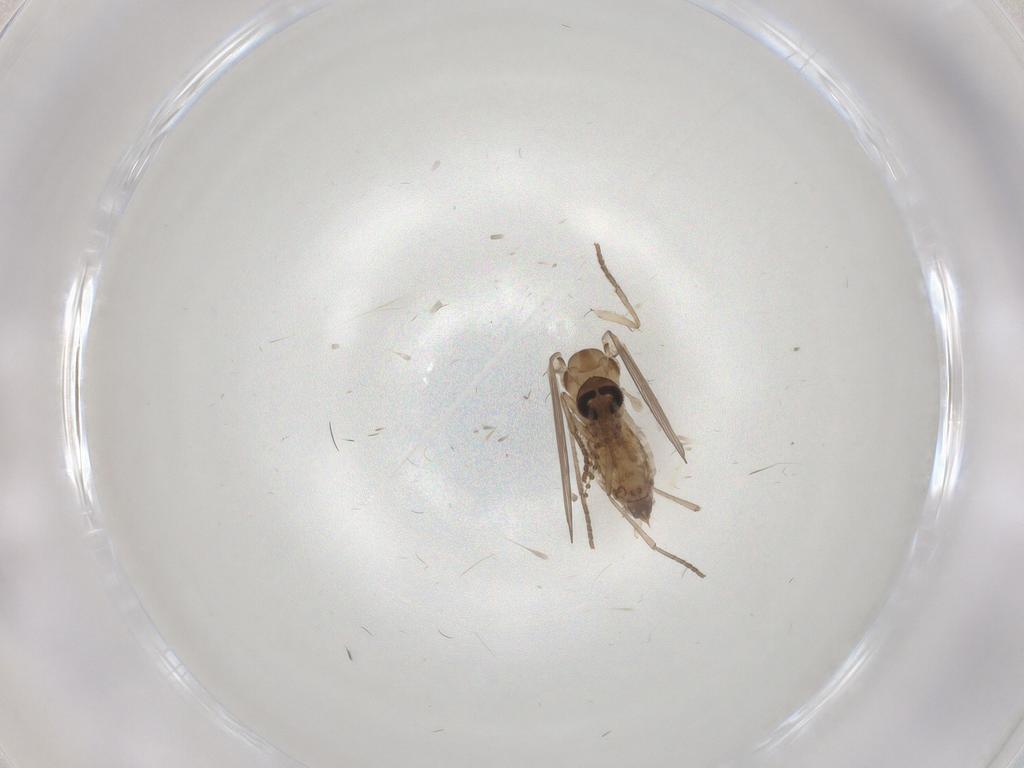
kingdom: Animalia
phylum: Arthropoda
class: Insecta
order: Diptera
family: Psychodidae
